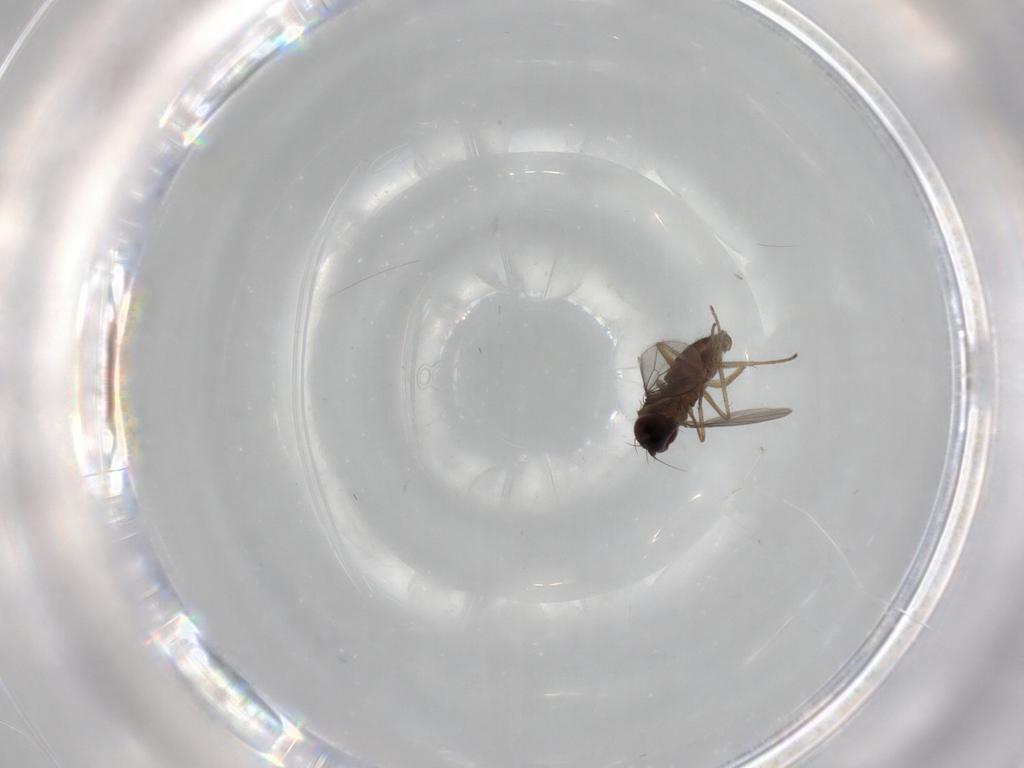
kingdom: Animalia
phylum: Arthropoda
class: Insecta
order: Diptera
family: Dolichopodidae
